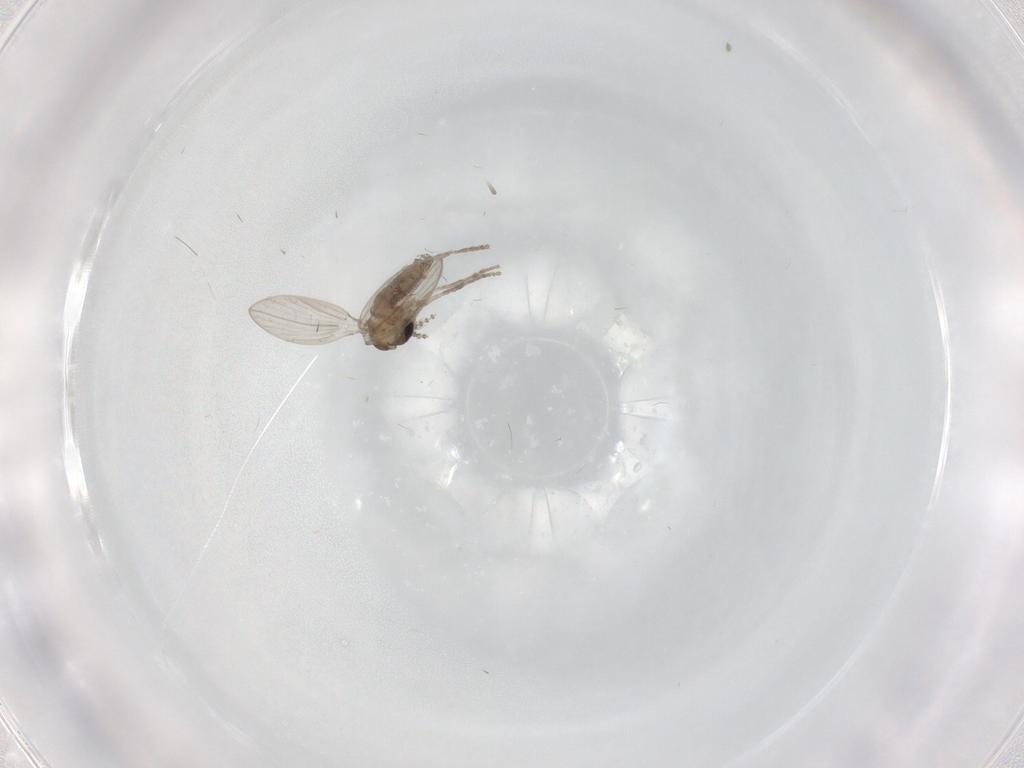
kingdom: Animalia
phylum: Arthropoda
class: Insecta
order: Diptera
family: Psychodidae
